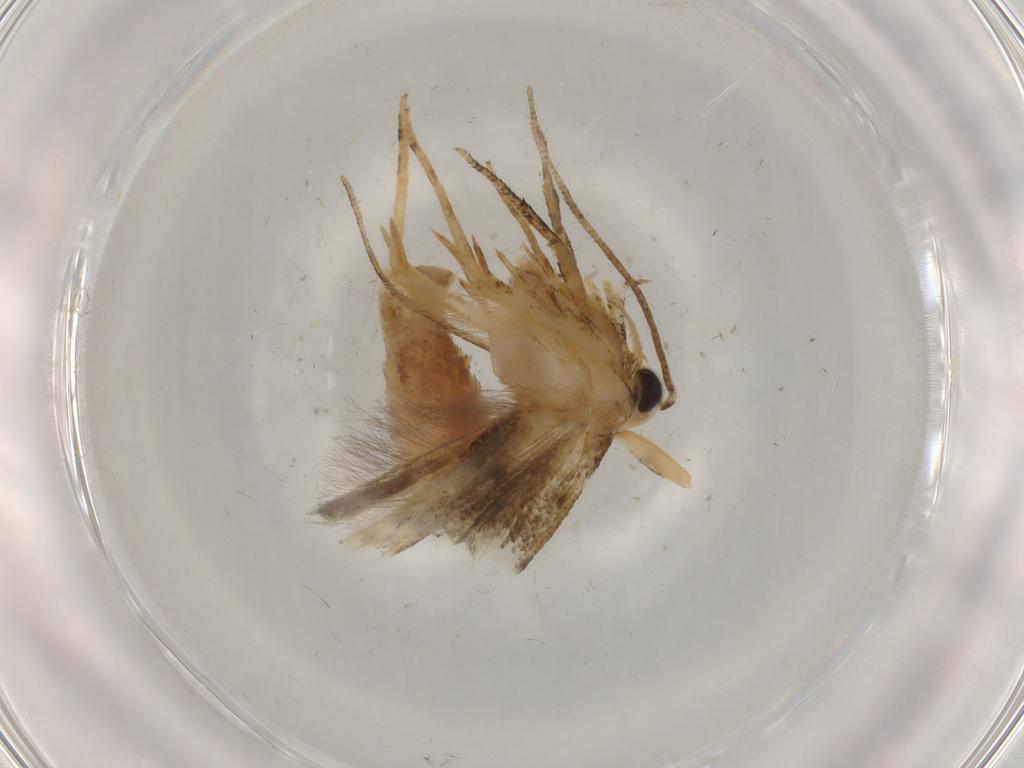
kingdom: Animalia
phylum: Arthropoda
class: Insecta
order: Lepidoptera
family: Gelechiidae
